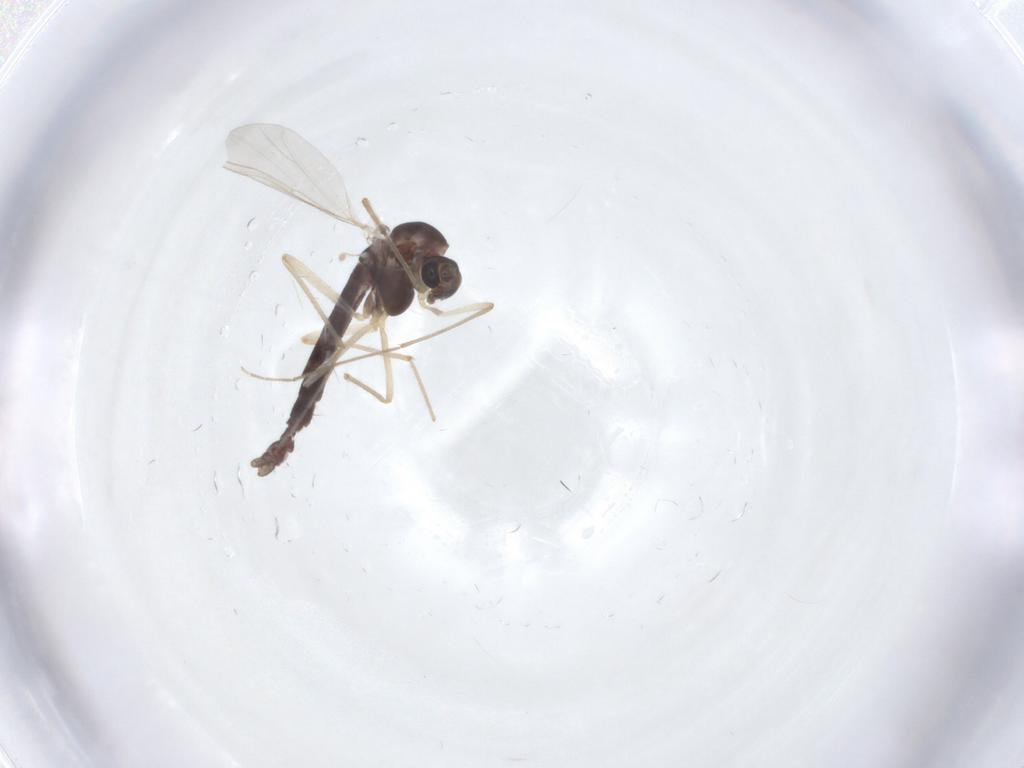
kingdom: Animalia
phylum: Arthropoda
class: Insecta
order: Diptera
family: Chironomidae
